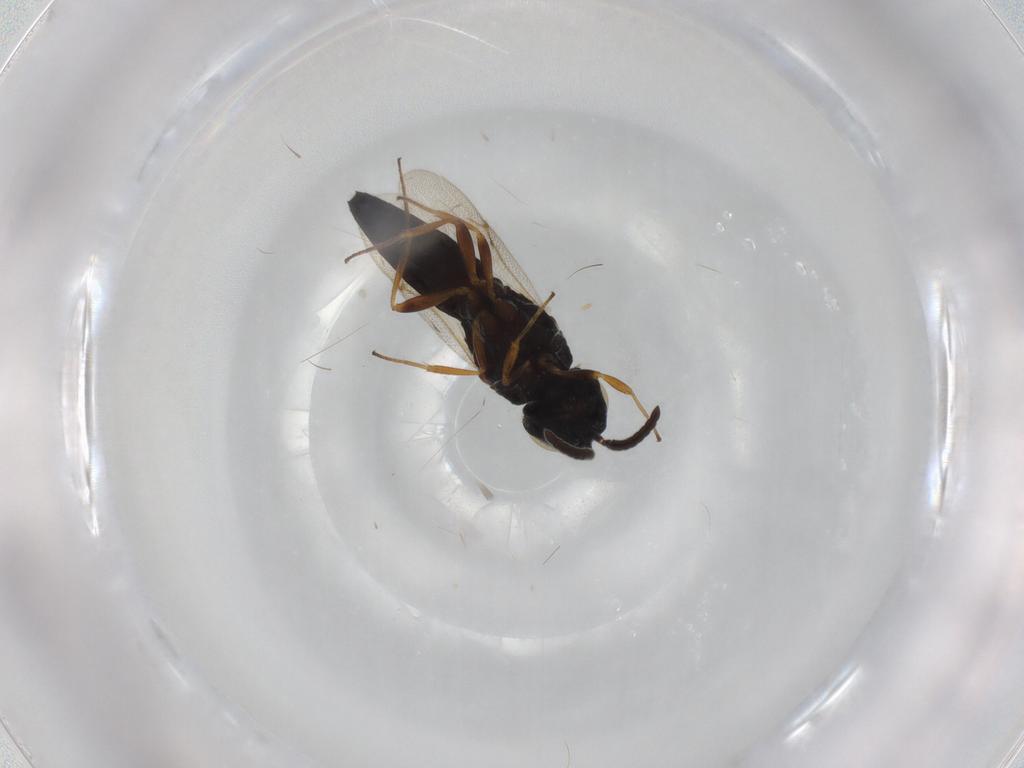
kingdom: Animalia
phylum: Arthropoda
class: Insecta
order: Hymenoptera
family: Scelionidae
